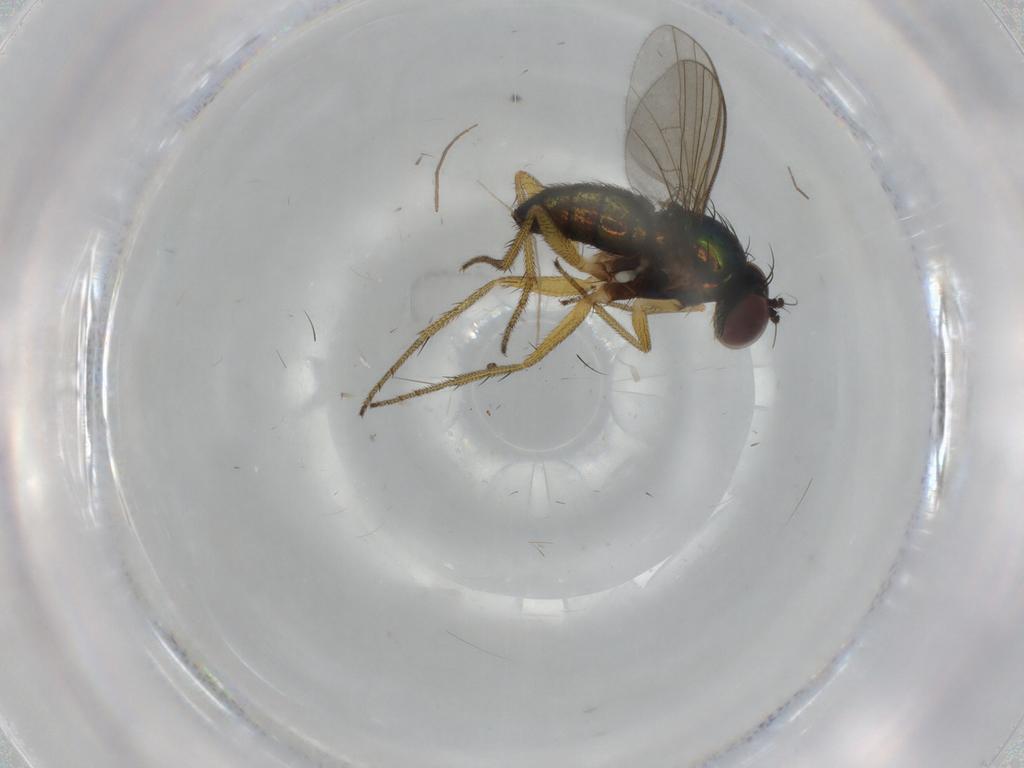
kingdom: Animalia
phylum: Arthropoda
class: Insecta
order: Diptera
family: Cecidomyiidae
